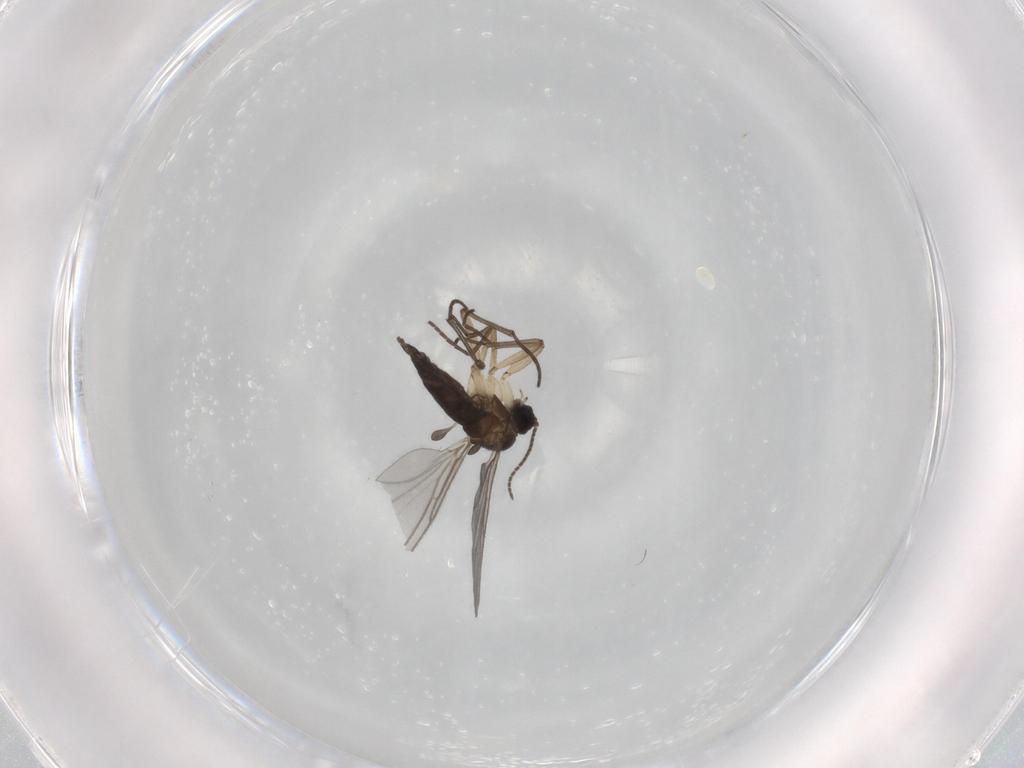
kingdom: Animalia
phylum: Arthropoda
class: Insecta
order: Diptera
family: Sciaridae
